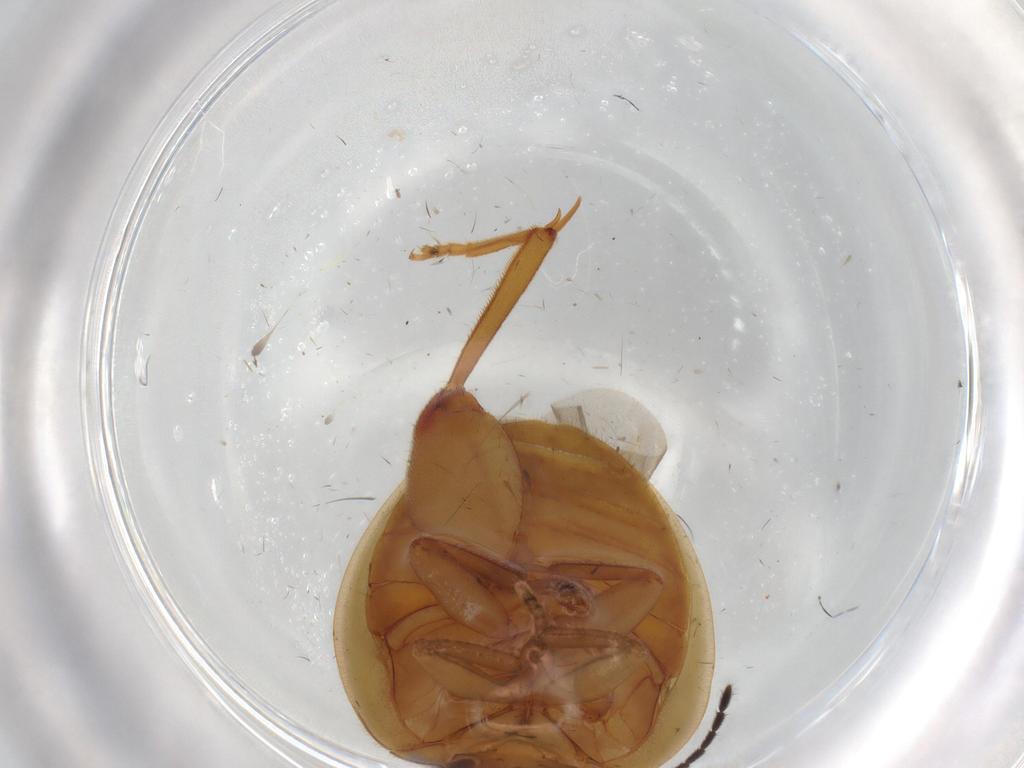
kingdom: Animalia
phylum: Arthropoda
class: Insecta
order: Coleoptera
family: Scirtidae
